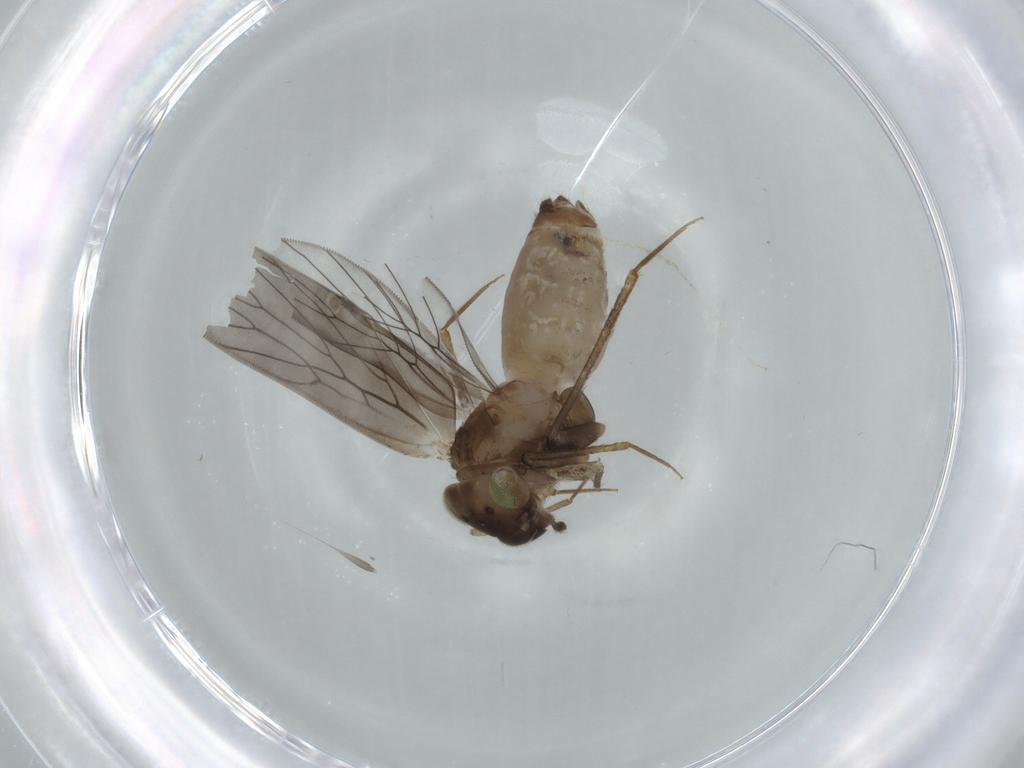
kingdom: Animalia
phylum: Arthropoda
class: Insecta
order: Psocodea
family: Lepidopsocidae
